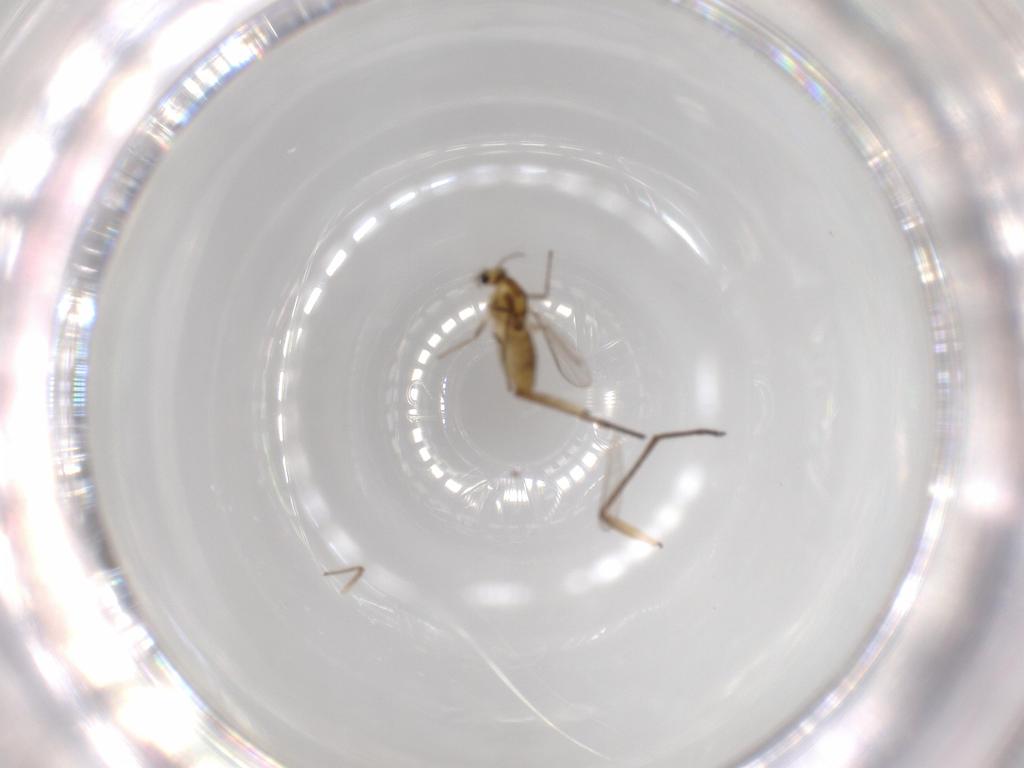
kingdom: Animalia
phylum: Arthropoda
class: Insecta
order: Diptera
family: Chironomidae
